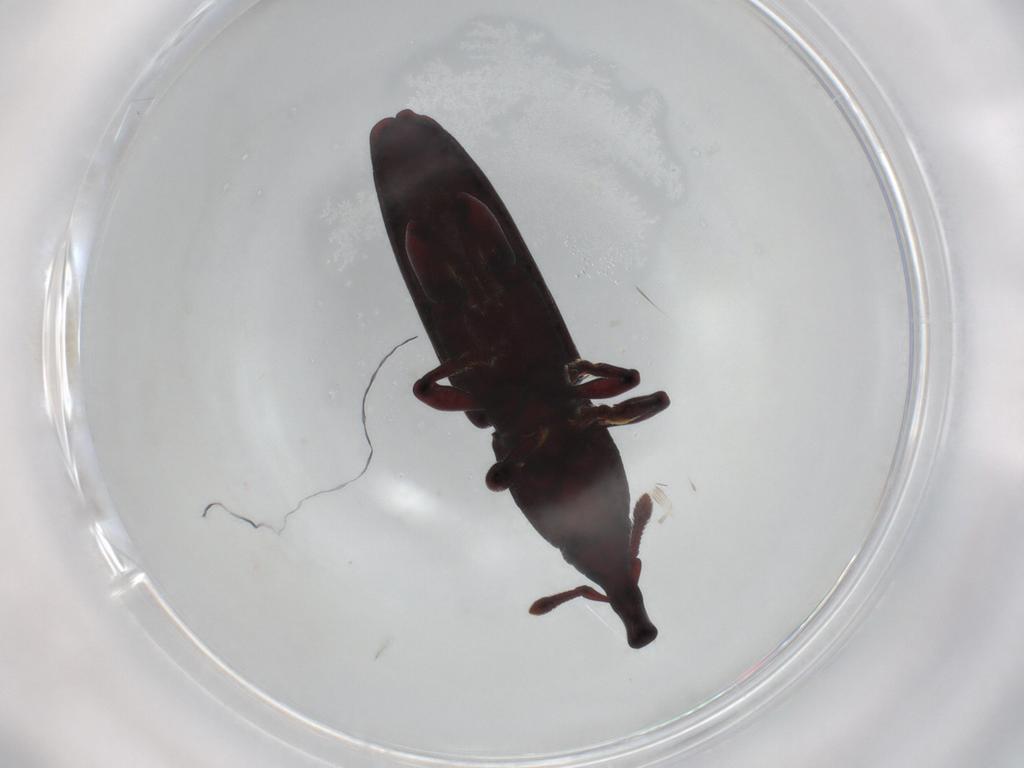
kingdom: Animalia
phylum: Arthropoda
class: Insecta
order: Coleoptera
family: Curculionidae
